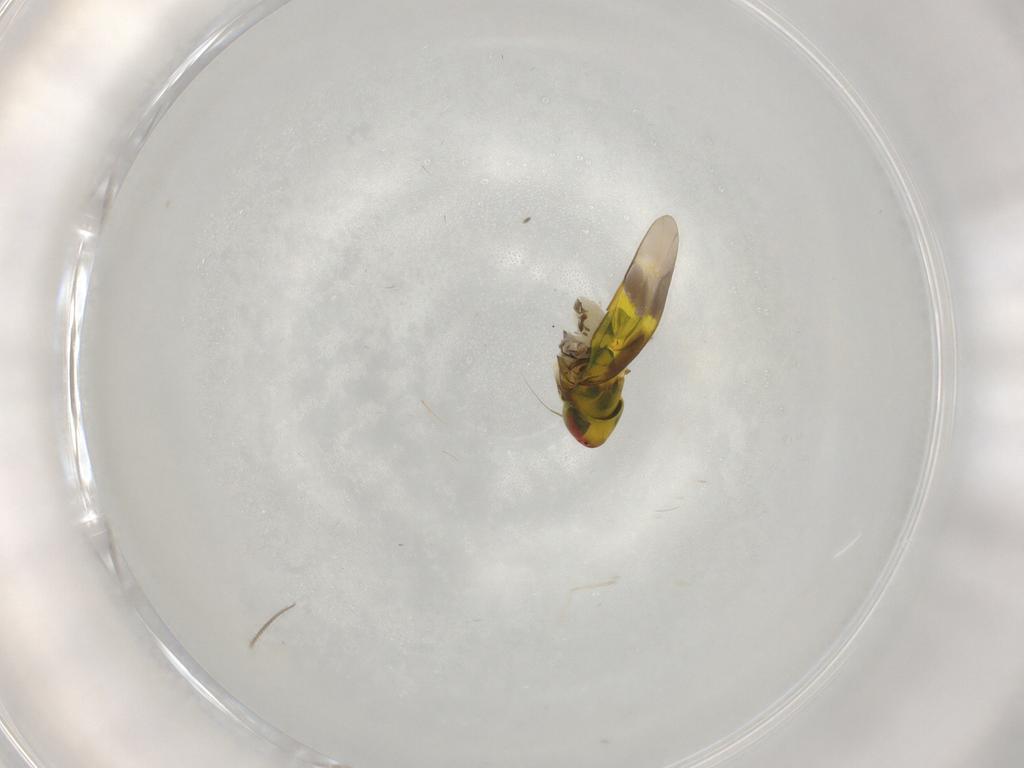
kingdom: Animalia
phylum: Arthropoda
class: Insecta
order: Hemiptera
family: Cicadellidae
